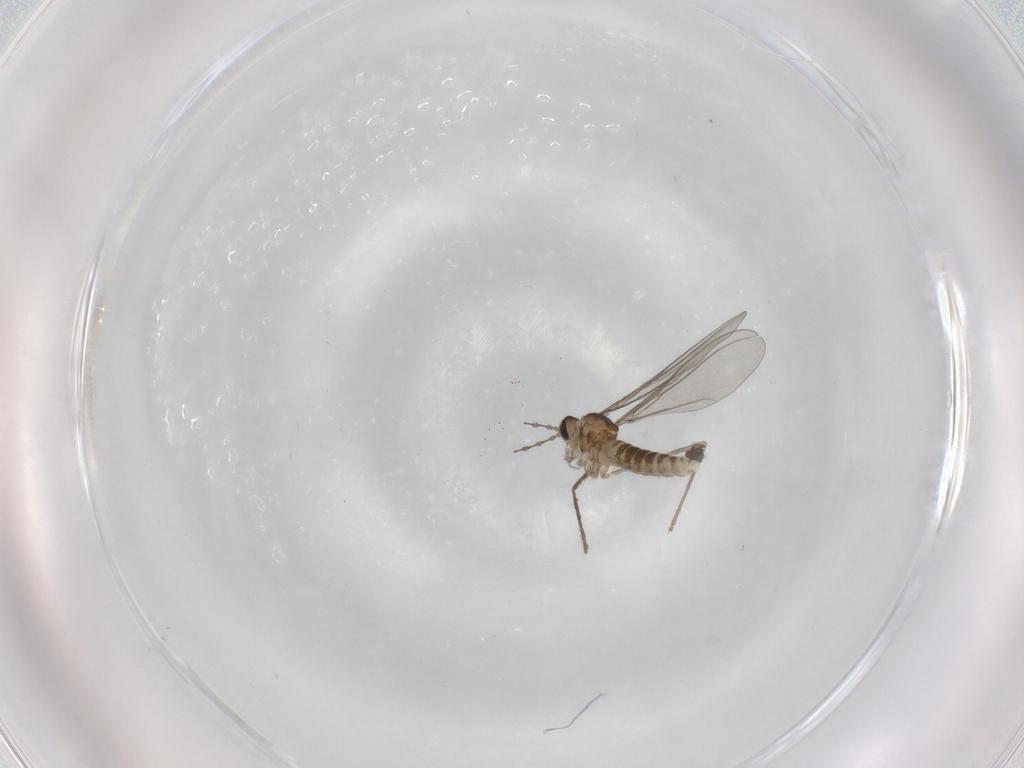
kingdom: Animalia
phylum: Arthropoda
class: Insecta
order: Diptera
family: Cecidomyiidae
